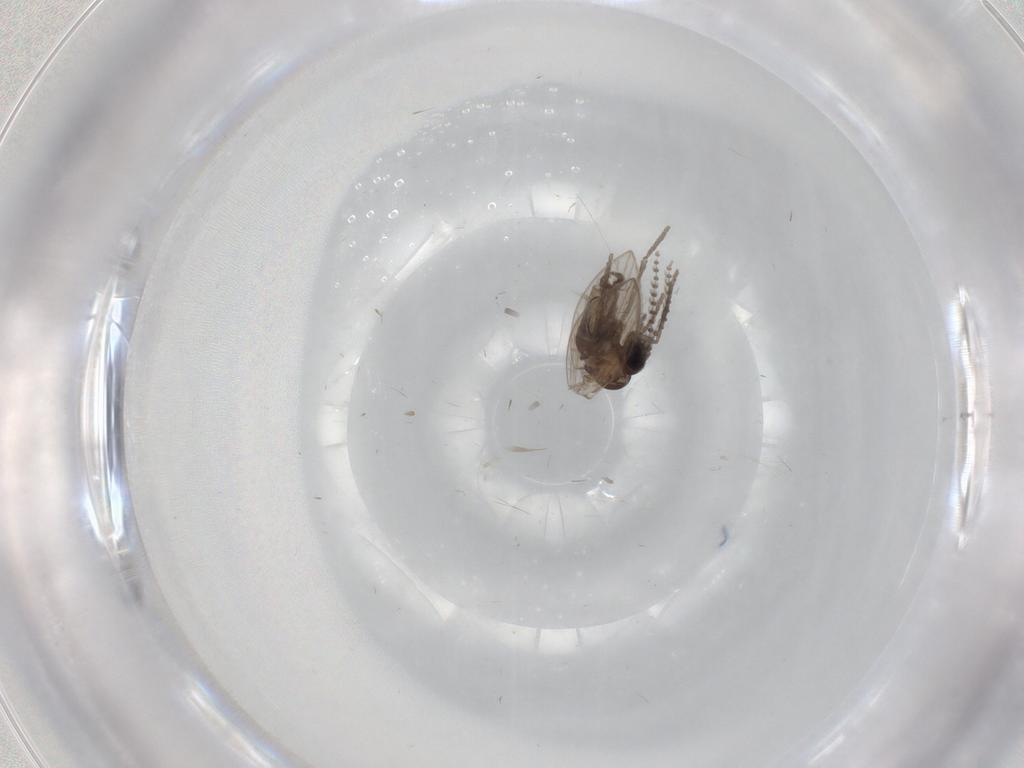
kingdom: Animalia
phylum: Arthropoda
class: Insecta
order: Diptera
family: Psychodidae
